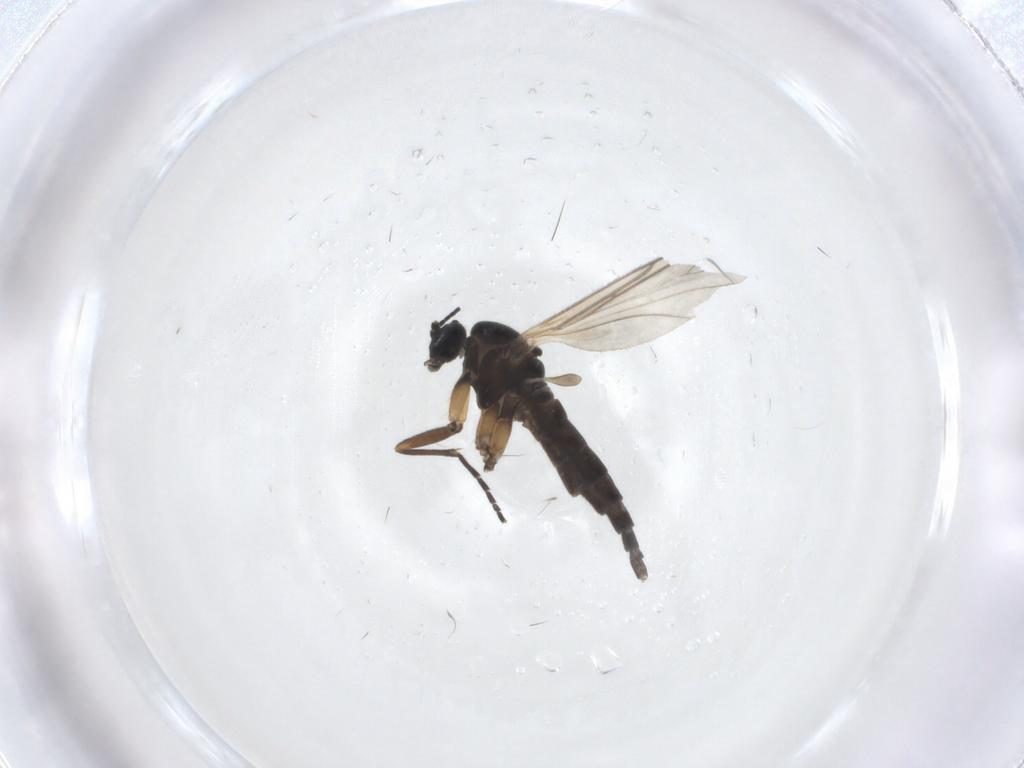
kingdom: Animalia
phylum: Arthropoda
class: Insecta
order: Diptera
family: Sciaridae
